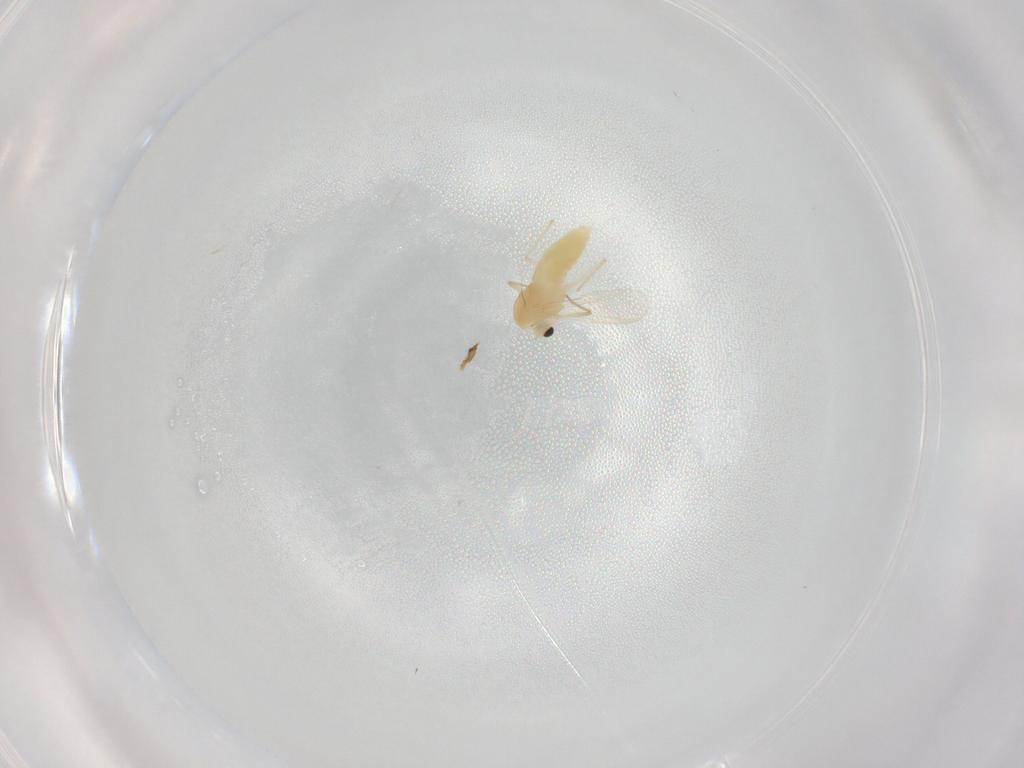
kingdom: Animalia
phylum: Arthropoda
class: Insecta
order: Diptera
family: Chironomidae
